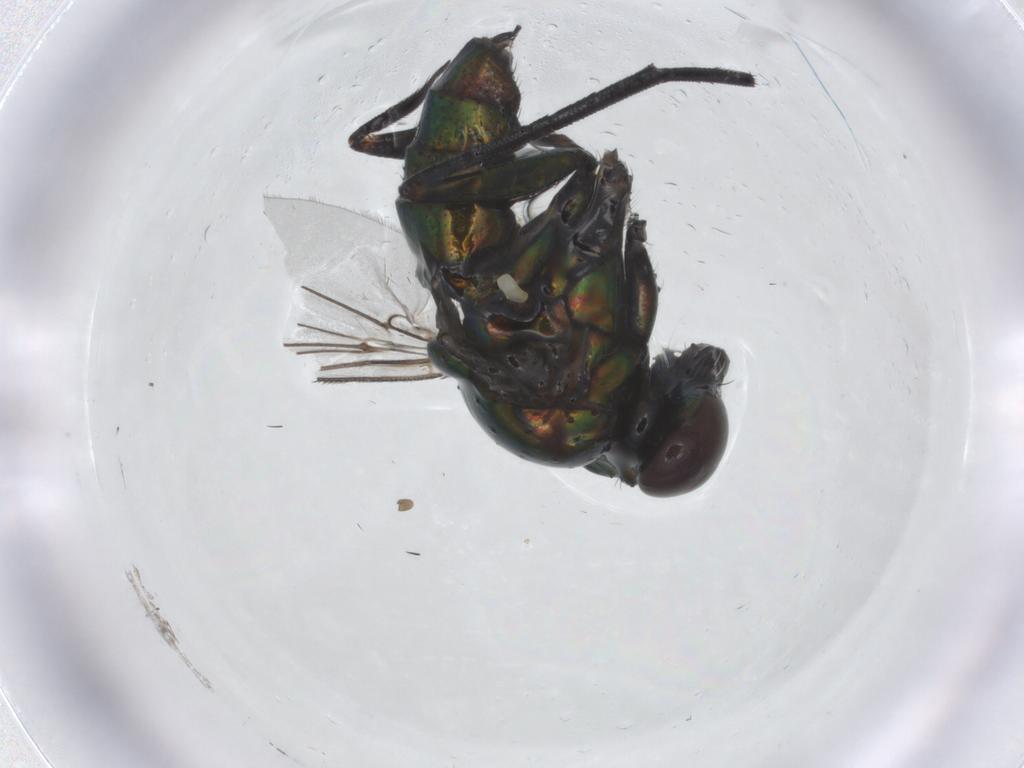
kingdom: Animalia
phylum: Arthropoda
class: Insecta
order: Diptera
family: Dolichopodidae
